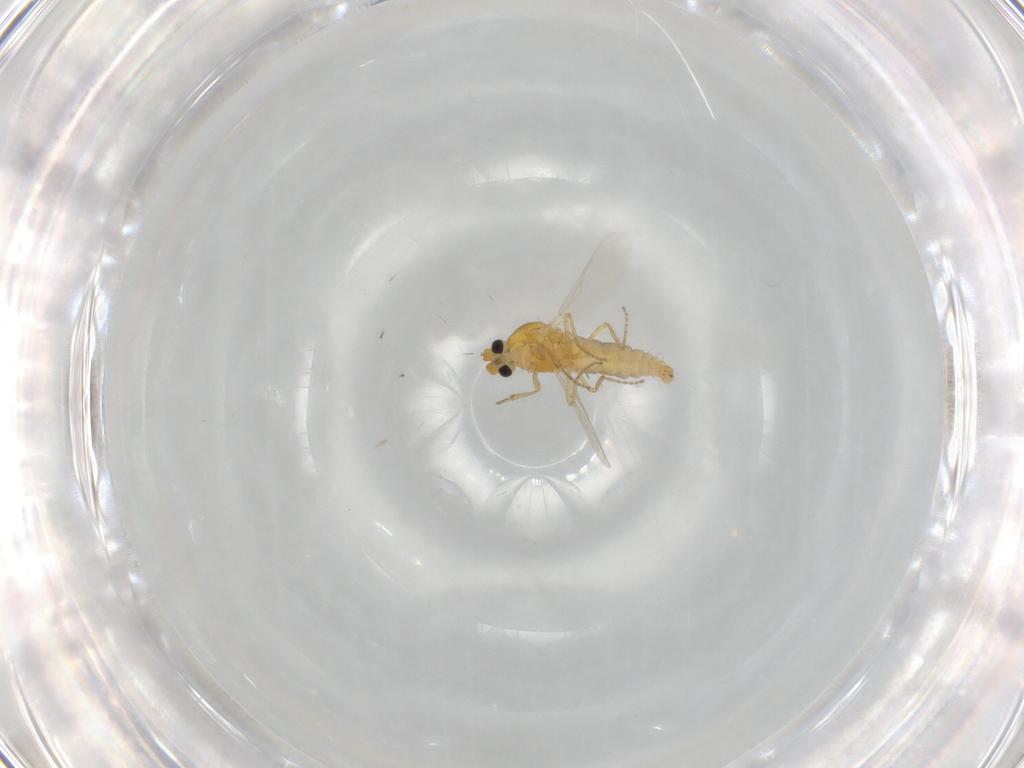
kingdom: Animalia
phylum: Arthropoda
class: Insecta
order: Diptera
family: Ceratopogonidae
